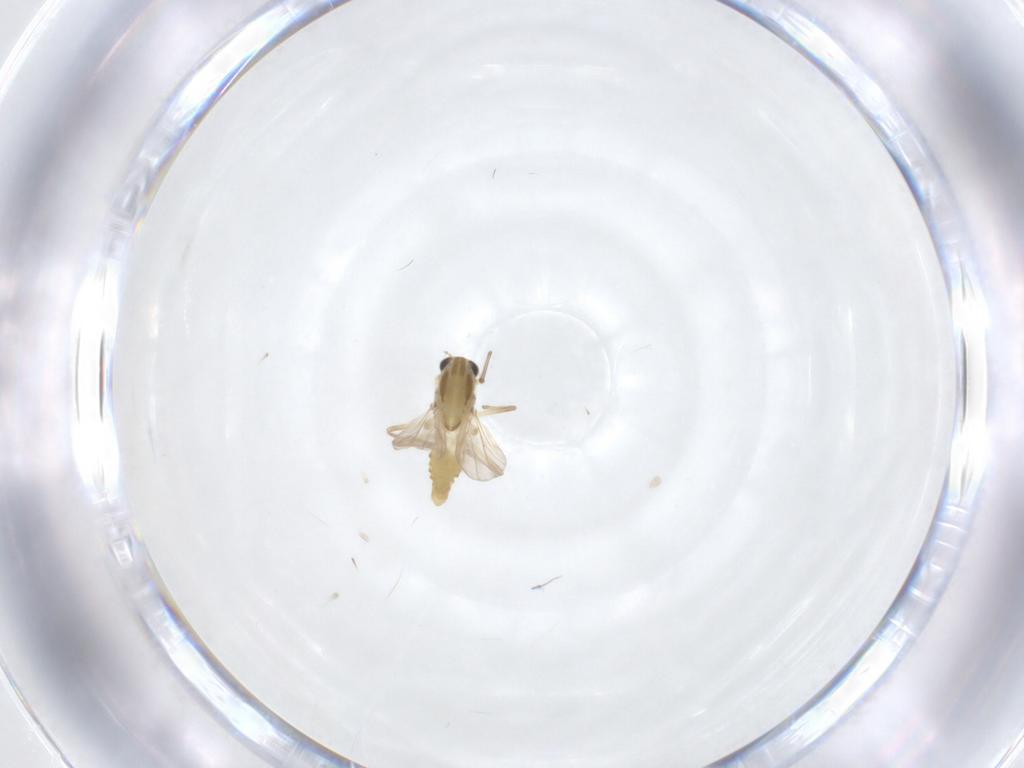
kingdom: Animalia
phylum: Arthropoda
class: Insecta
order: Diptera
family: Chironomidae
